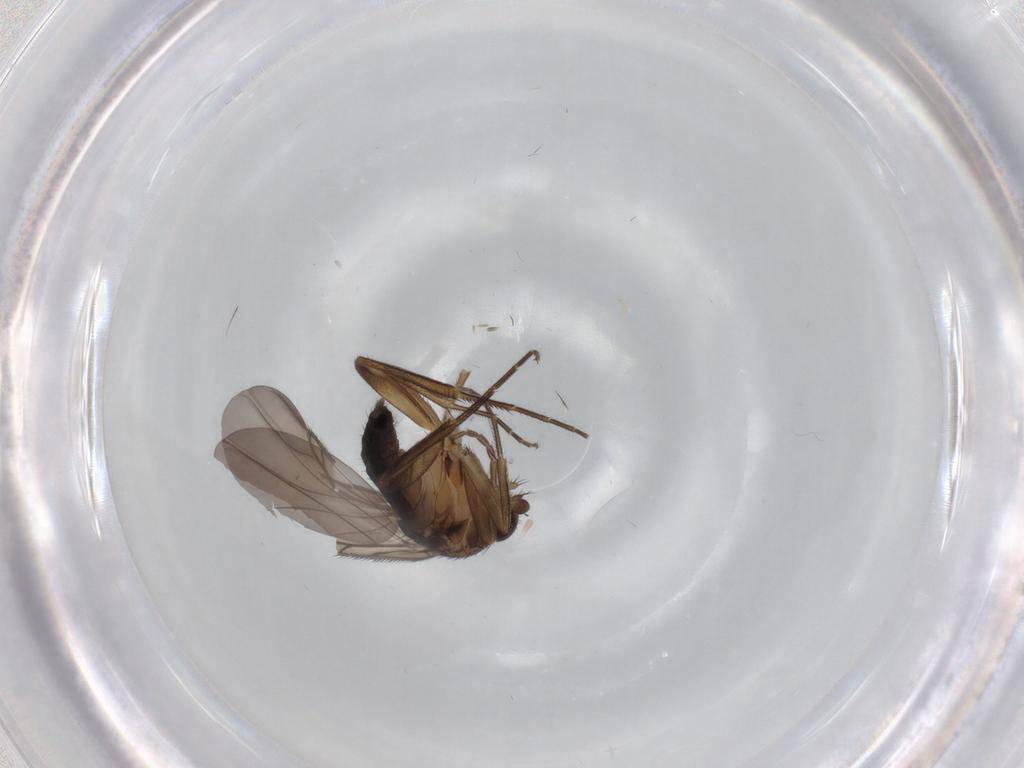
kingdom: Animalia
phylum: Arthropoda
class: Insecta
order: Diptera
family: Phoridae
